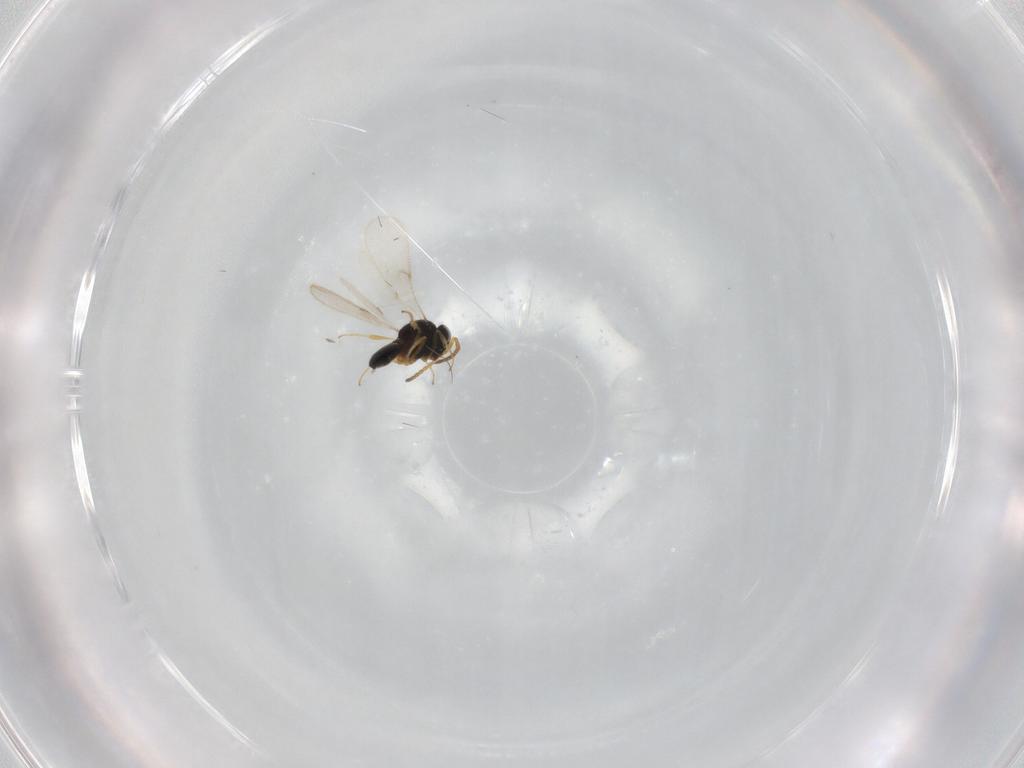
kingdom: Animalia
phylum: Arthropoda
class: Insecta
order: Hymenoptera
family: Scelionidae
